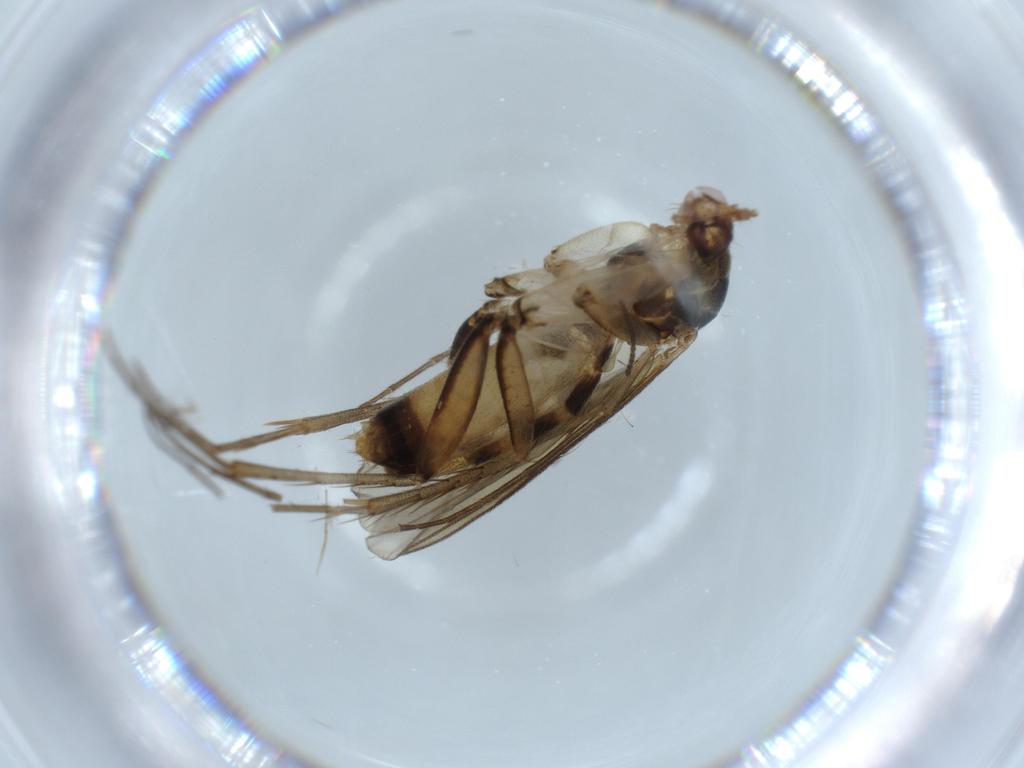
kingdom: Animalia
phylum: Arthropoda
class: Insecta
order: Diptera
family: Mycetophilidae
